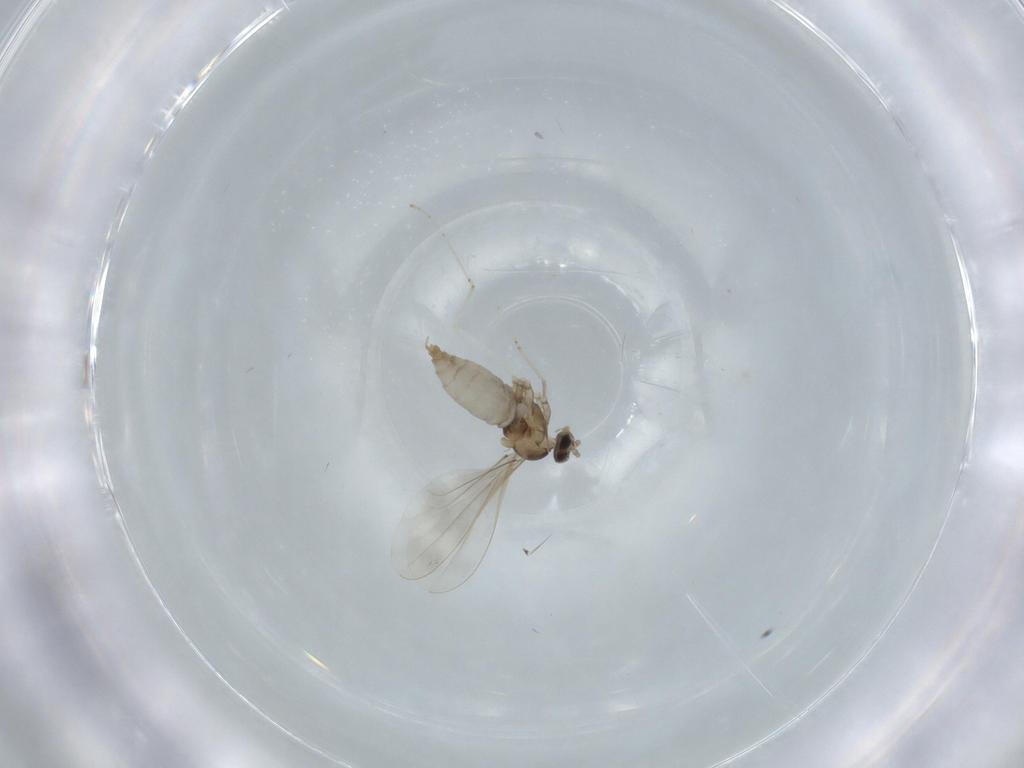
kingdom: Animalia
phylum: Arthropoda
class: Insecta
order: Diptera
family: Cecidomyiidae
